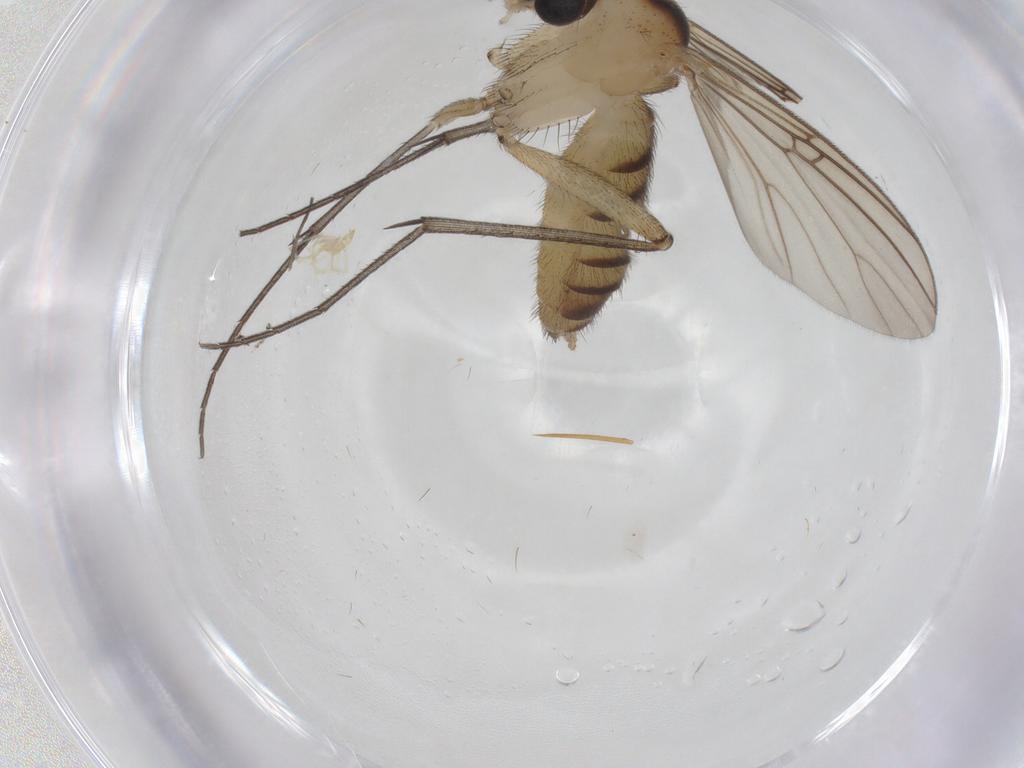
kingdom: Animalia
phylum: Arthropoda
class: Insecta
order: Diptera
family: Mycetophilidae
